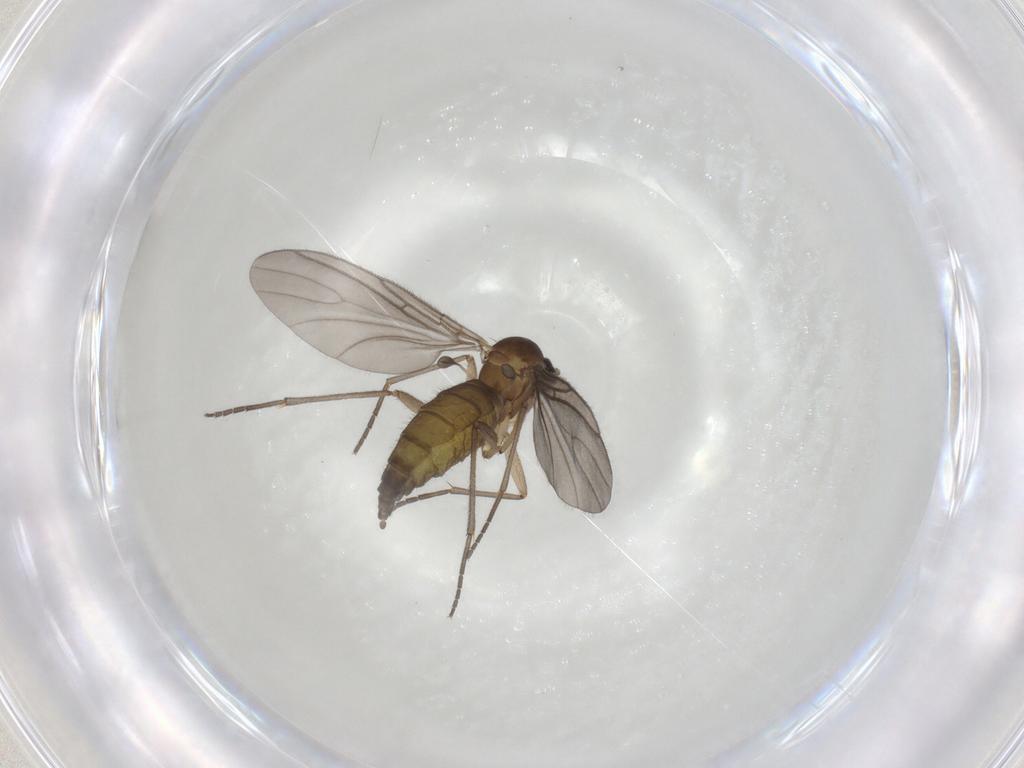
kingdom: Animalia
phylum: Arthropoda
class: Insecta
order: Diptera
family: Sciaridae
